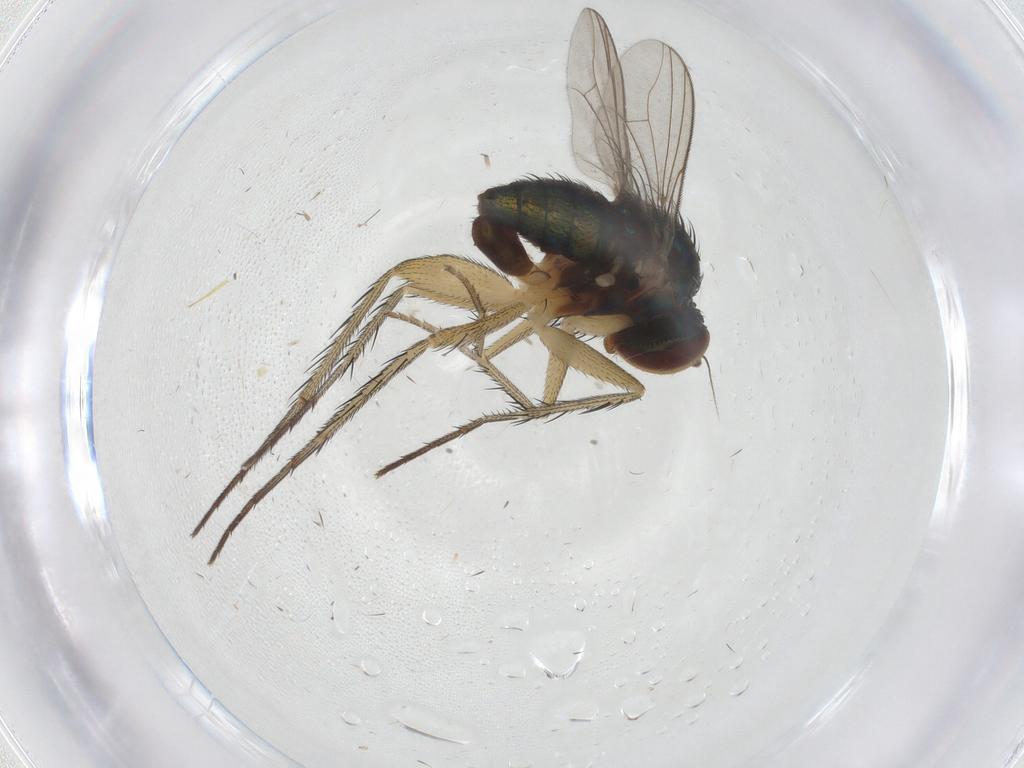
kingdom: Animalia
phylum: Arthropoda
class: Insecta
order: Diptera
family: Dolichopodidae
